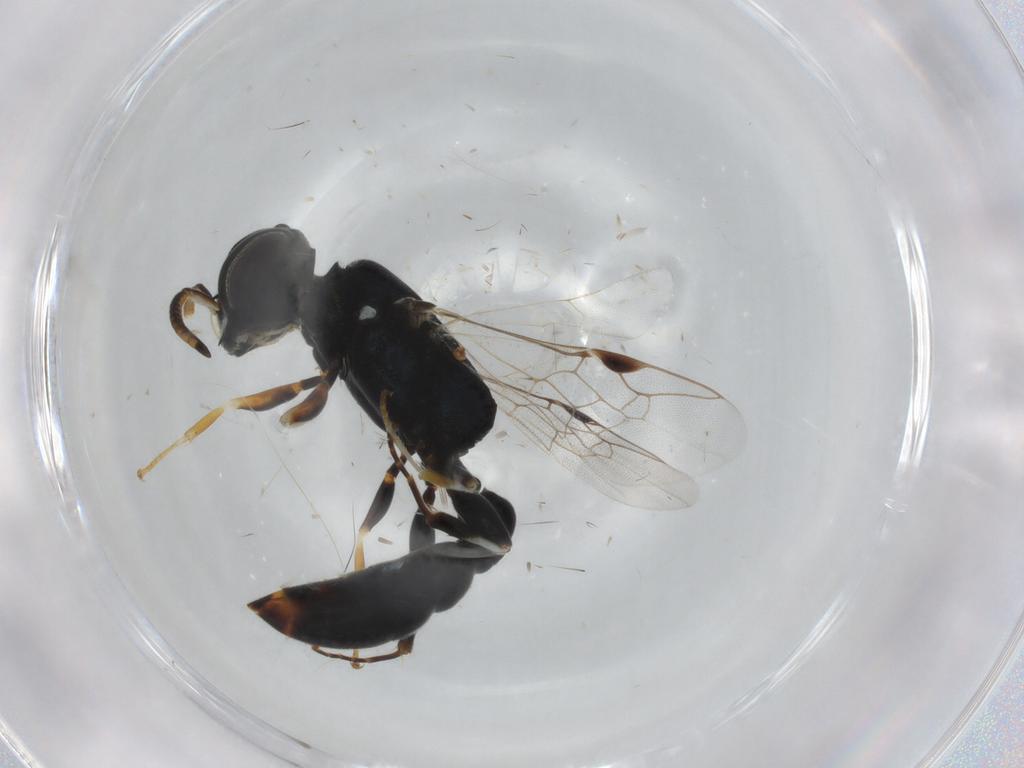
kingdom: Animalia
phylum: Arthropoda
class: Insecta
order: Hymenoptera
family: Pemphredonidae
